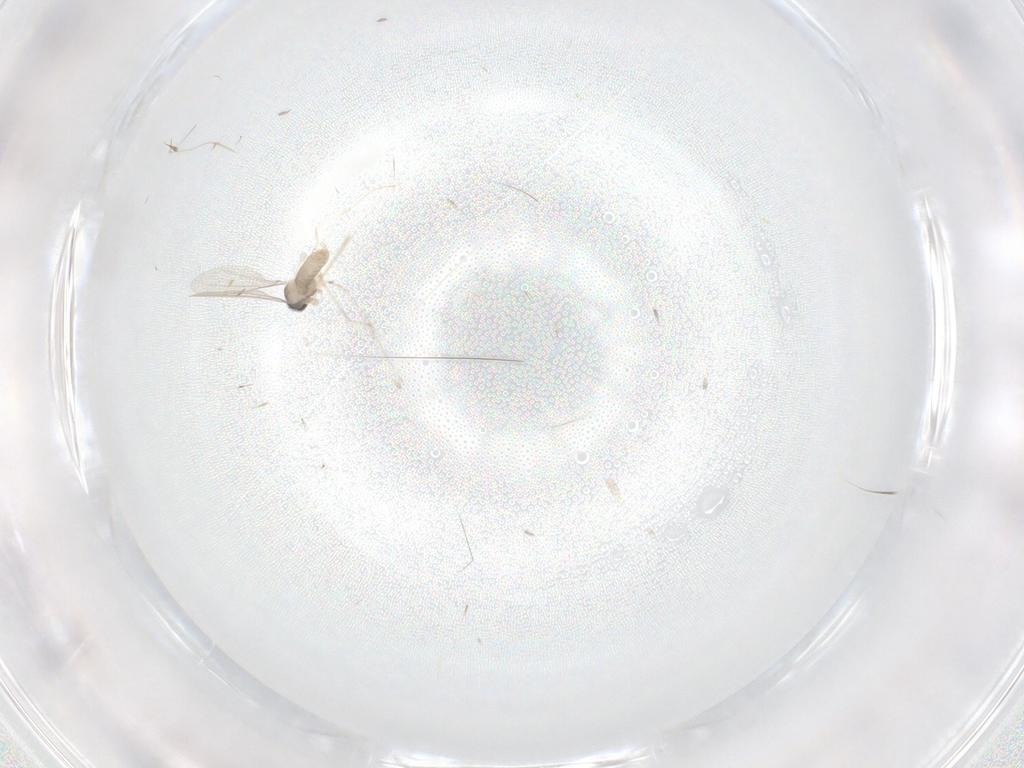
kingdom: Animalia
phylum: Arthropoda
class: Insecta
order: Diptera
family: Cecidomyiidae
